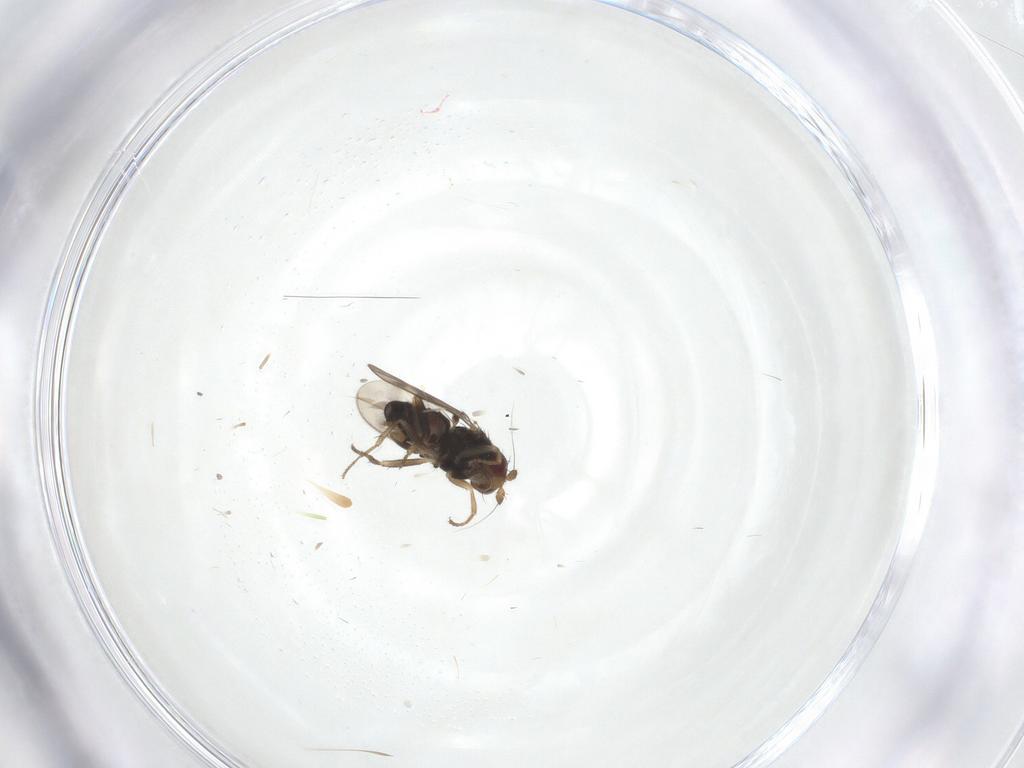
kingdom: Animalia
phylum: Arthropoda
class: Insecta
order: Diptera
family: Sphaeroceridae
